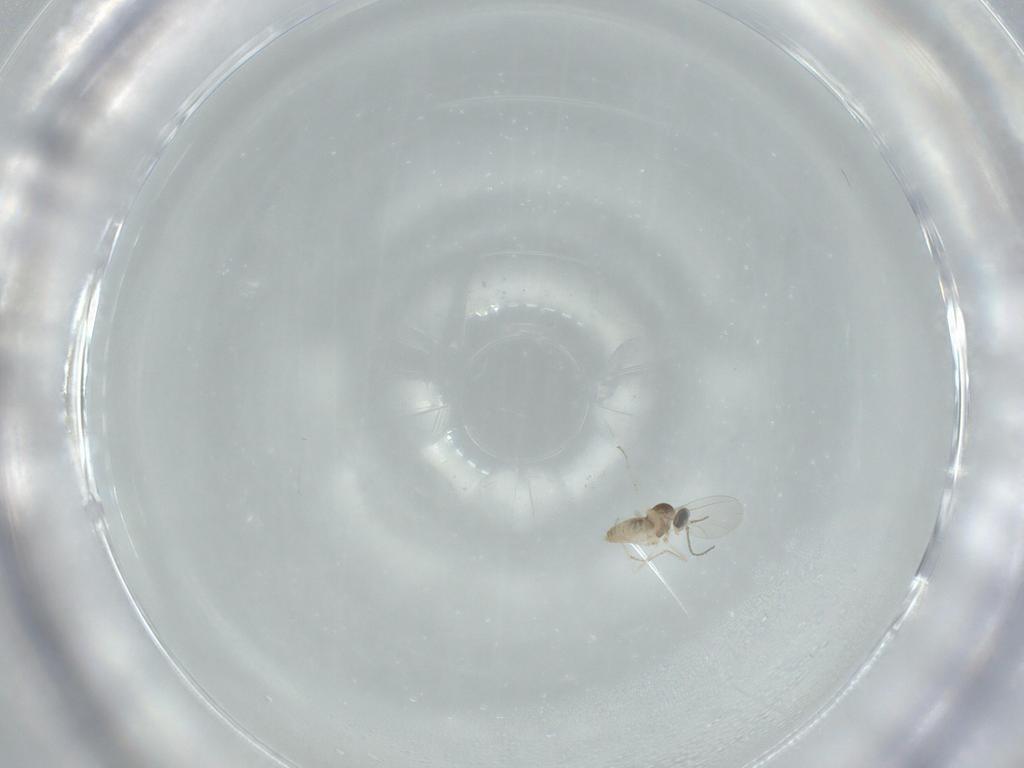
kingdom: Animalia
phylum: Arthropoda
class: Insecta
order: Diptera
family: Cecidomyiidae
